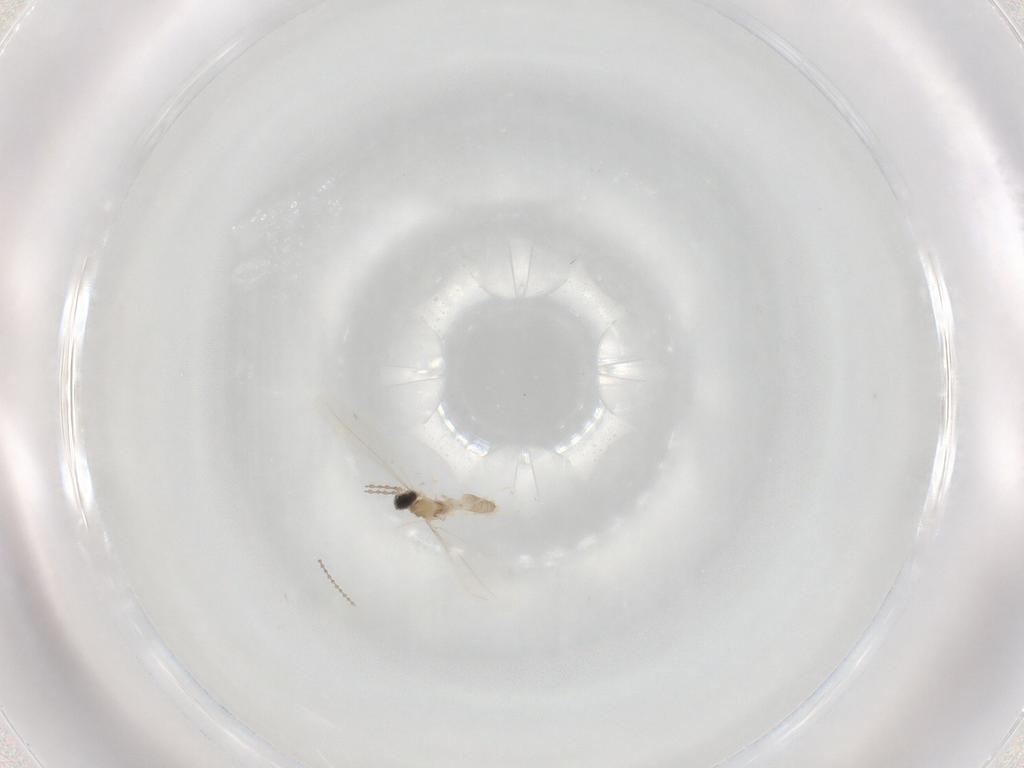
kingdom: Animalia
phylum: Arthropoda
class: Insecta
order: Diptera
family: Cecidomyiidae
